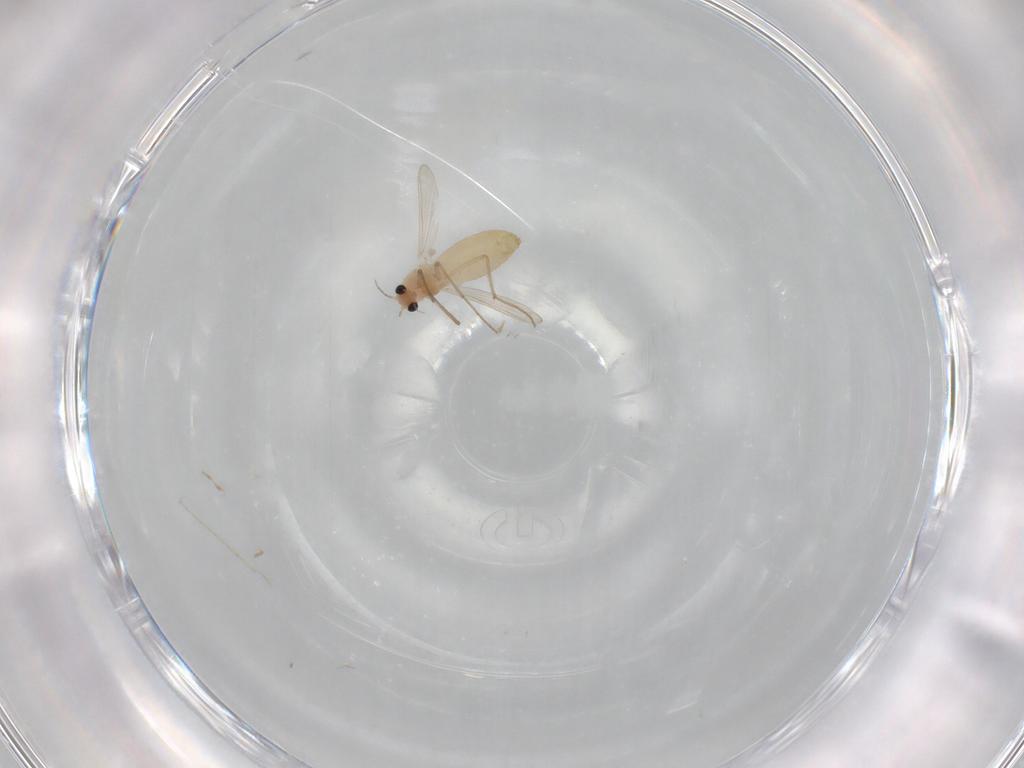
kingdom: Animalia
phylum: Arthropoda
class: Insecta
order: Diptera
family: Chironomidae
